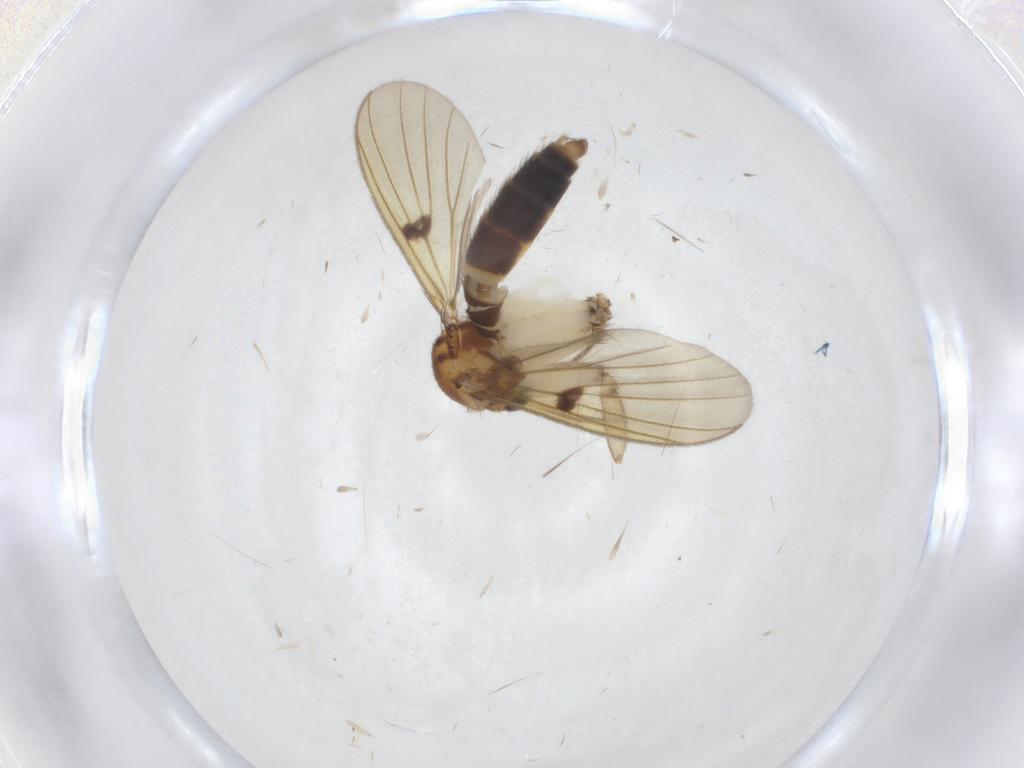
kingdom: Animalia
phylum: Arthropoda
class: Insecta
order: Diptera
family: Mycetophilidae
